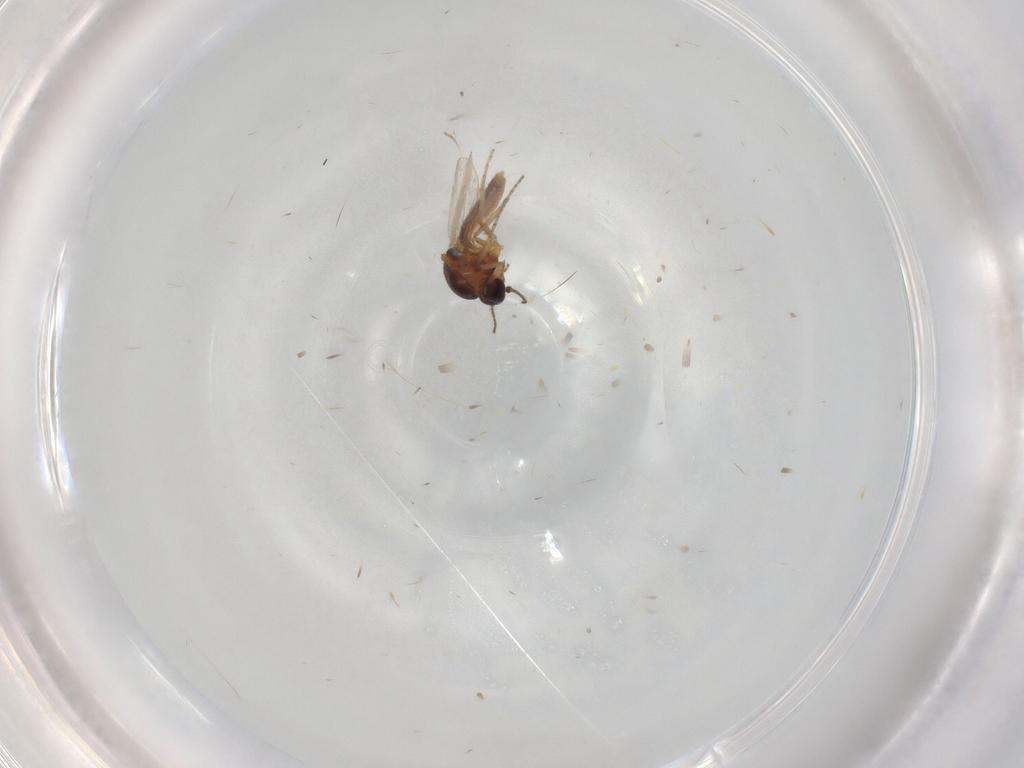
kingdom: Animalia
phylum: Arthropoda
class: Insecta
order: Diptera
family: Ceratopogonidae
